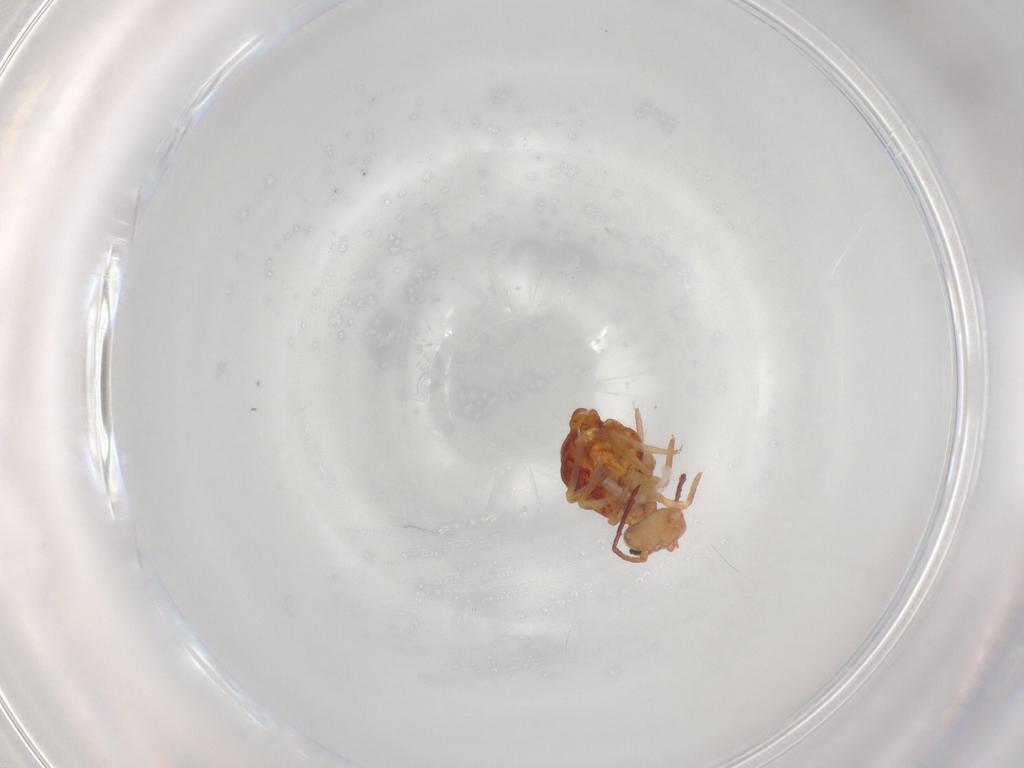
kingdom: Animalia
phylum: Arthropoda
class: Collembola
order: Symphypleona
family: Dicyrtomidae
